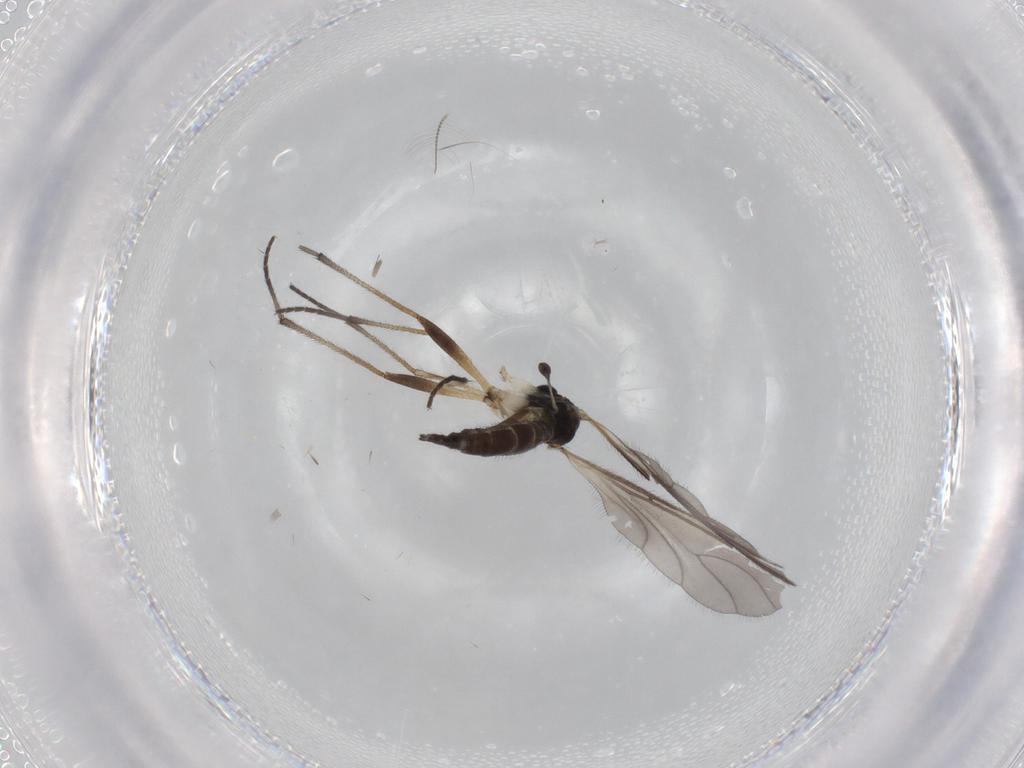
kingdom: Animalia
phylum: Arthropoda
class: Insecta
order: Diptera
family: Sciaridae
